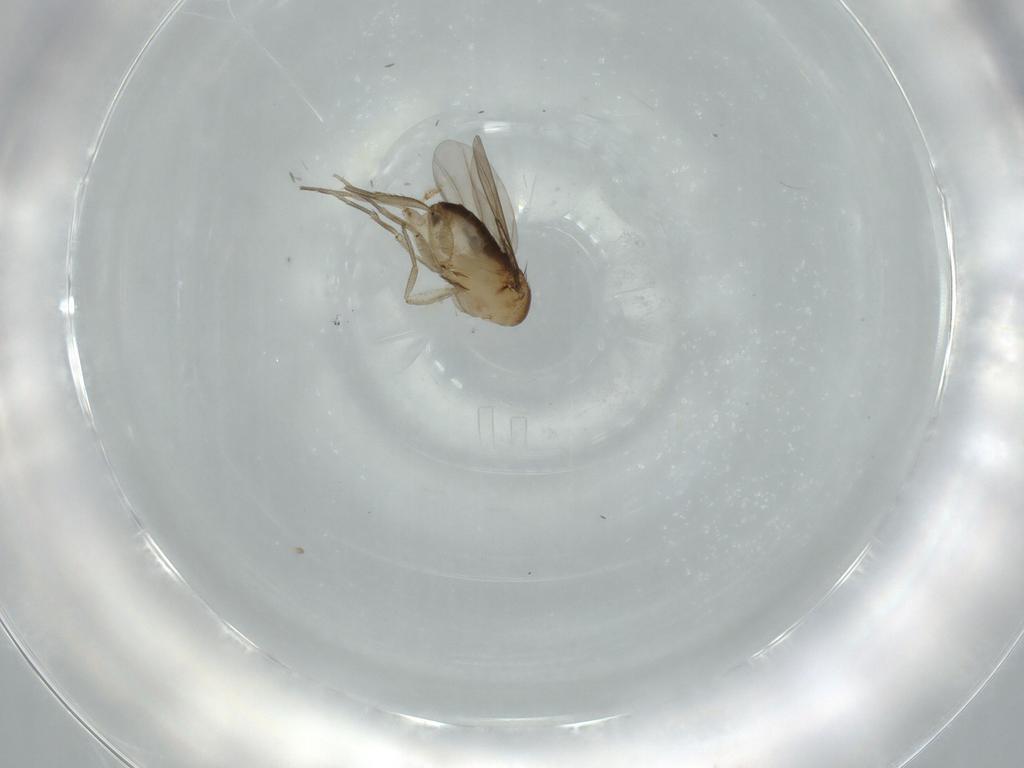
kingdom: Animalia
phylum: Arthropoda
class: Insecta
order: Diptera
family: Phoridae
